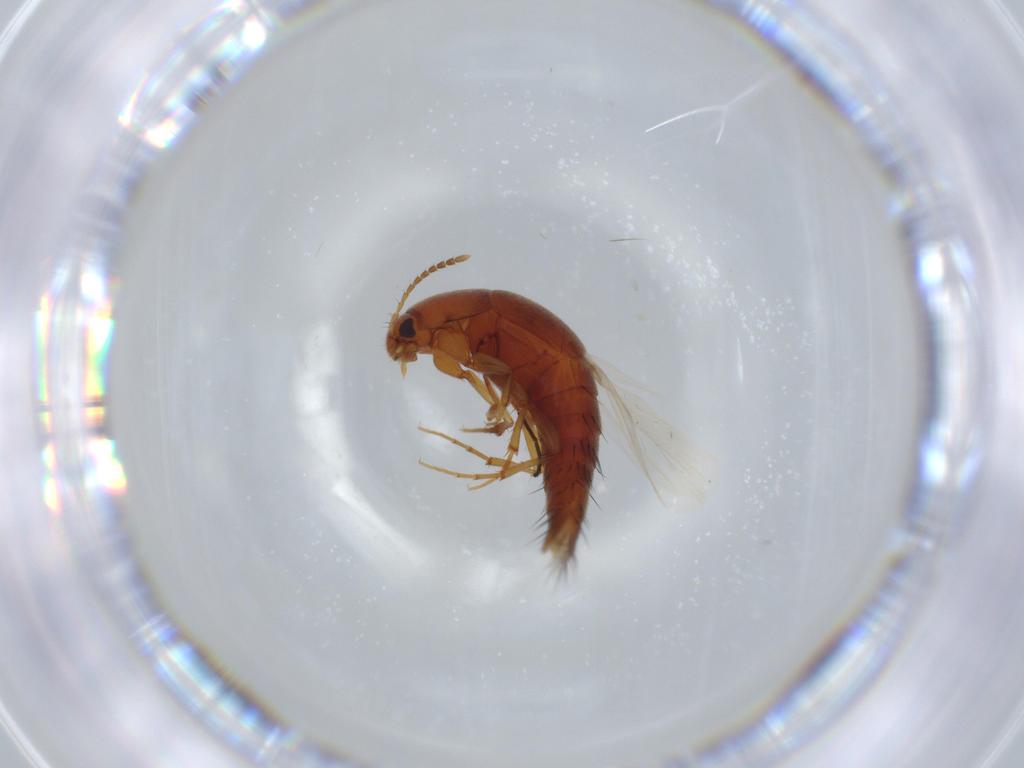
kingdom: Animalia
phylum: Arthropoda
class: Insecta
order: Coleoptera
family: Staphylinidae
